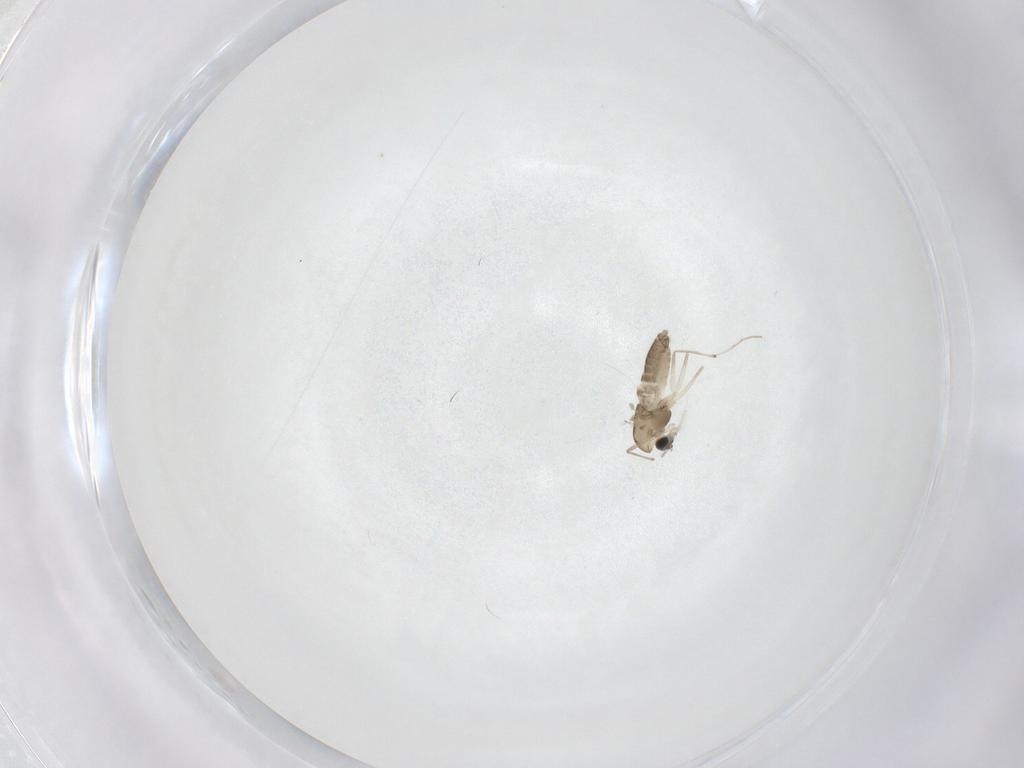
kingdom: Animalia
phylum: Arthropoda
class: Insecta
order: Diptera
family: Chironomidae
